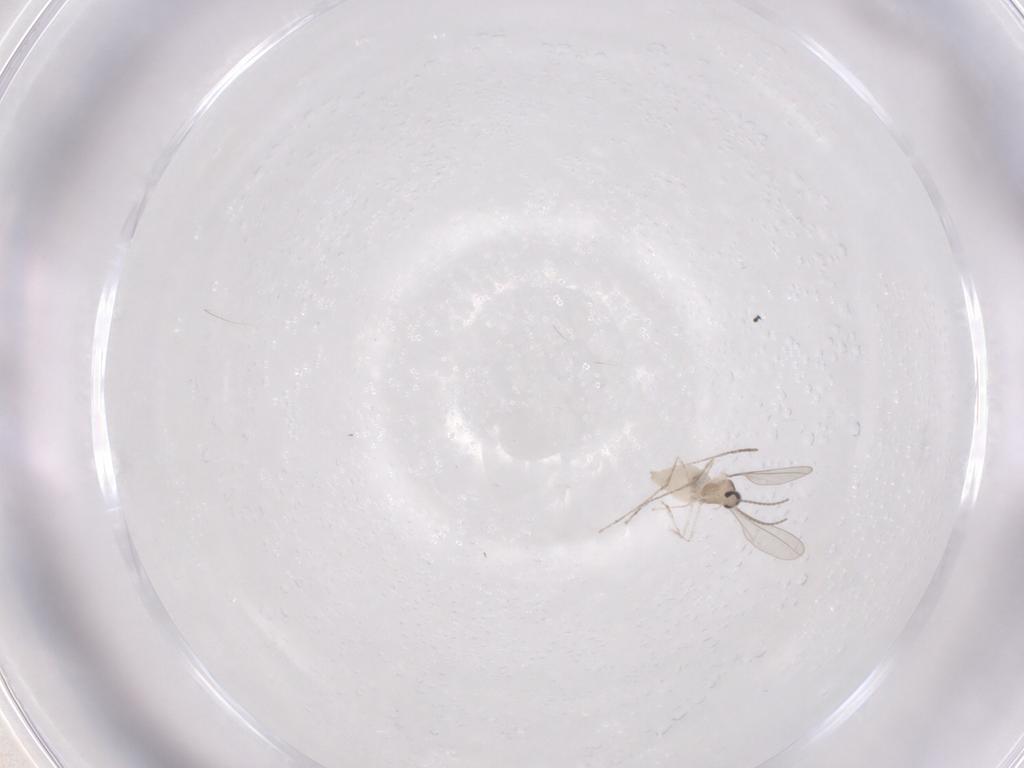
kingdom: Animalia
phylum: Arthropoda
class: Insecta
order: Diptera
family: Cecidomyiidae
